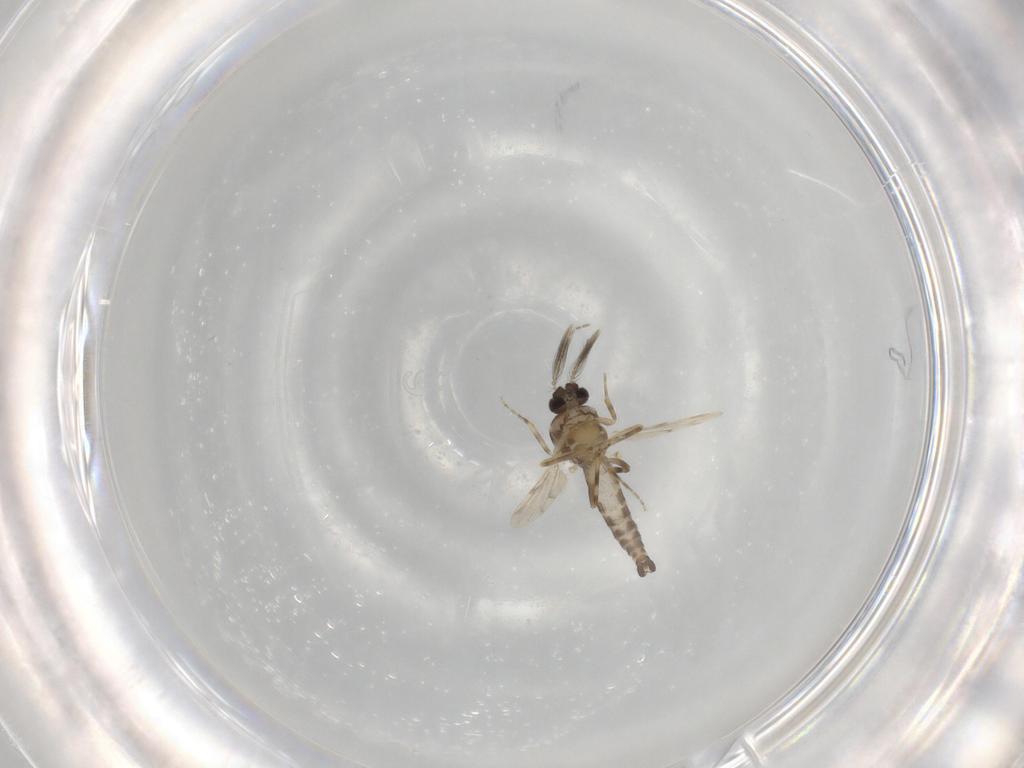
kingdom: Animalia
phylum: Arthropoda
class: Insecta
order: Diptera
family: Ceratopogonidae
